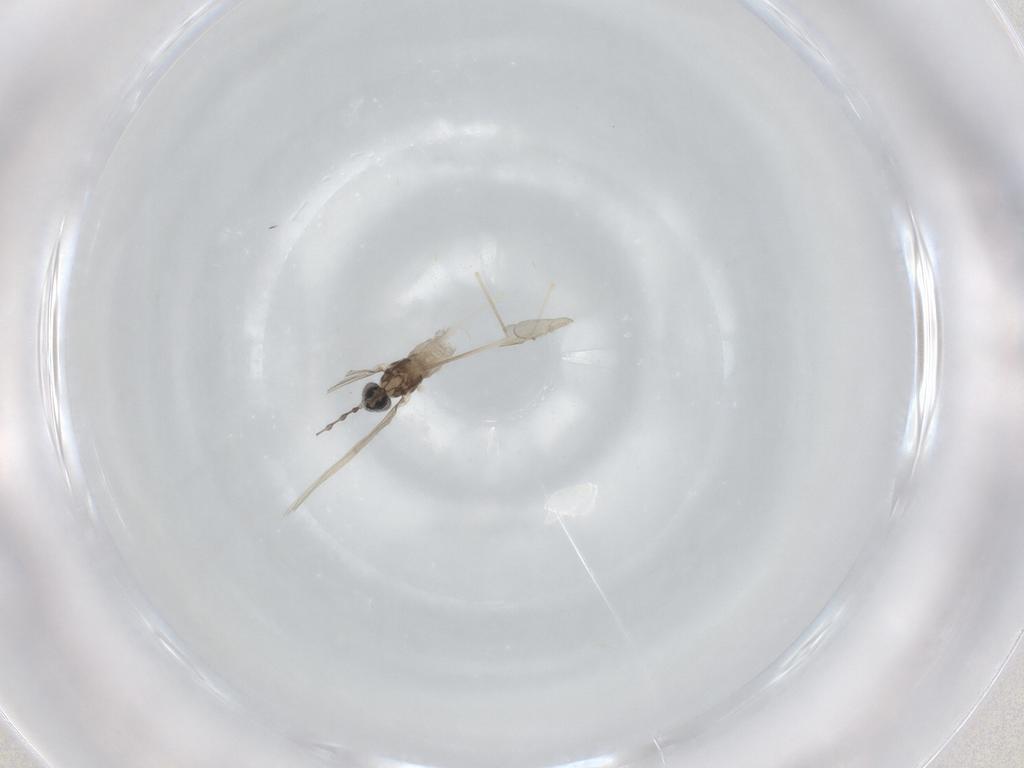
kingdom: Animalia
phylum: Arthropoda
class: Insecta
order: Diptera
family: Cecidomyiidae
